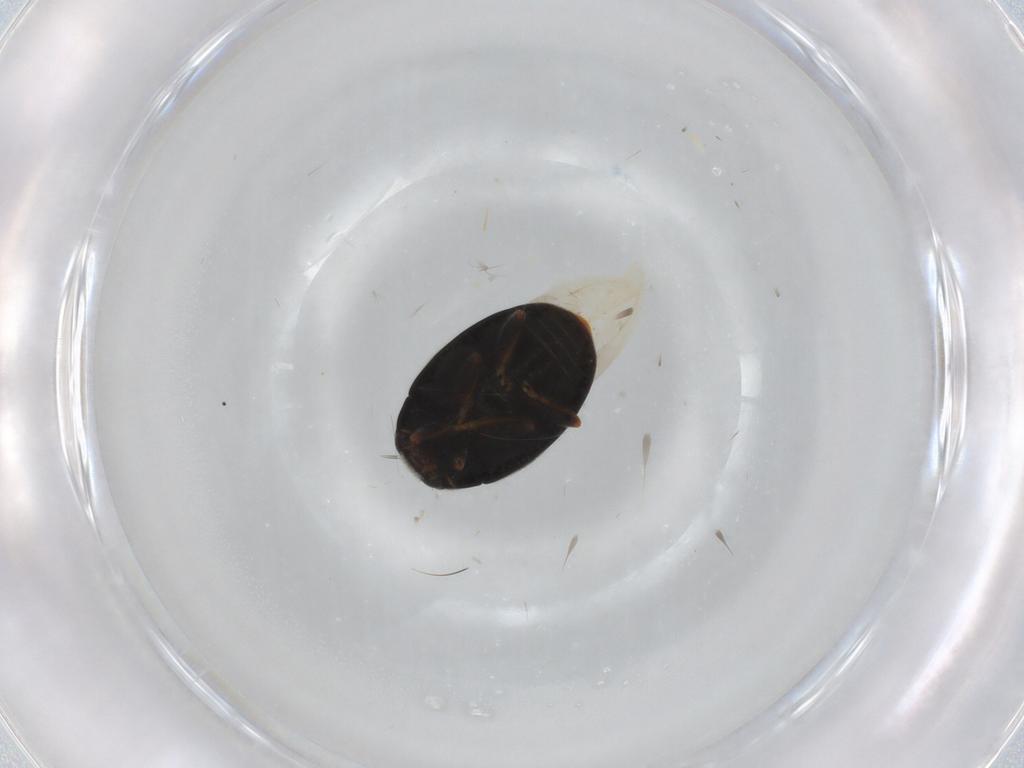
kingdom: Animalia
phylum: Arthropoda
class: Insecta
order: Coleoptera
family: Coccinellidae
